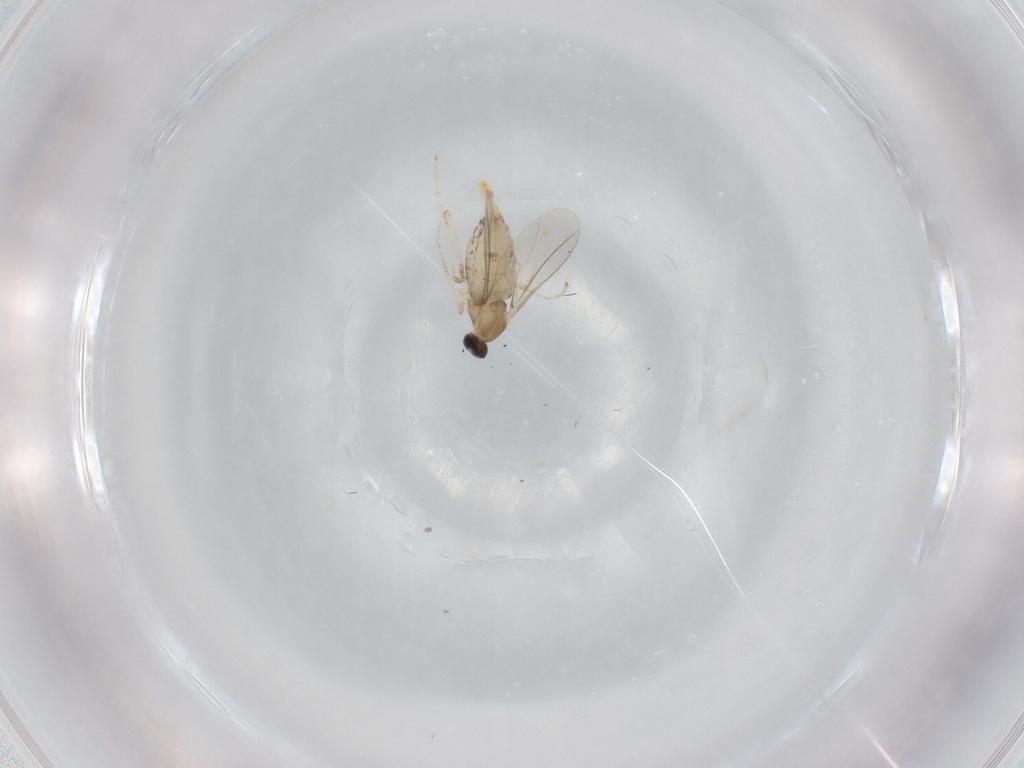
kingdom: Animalia
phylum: Arthropoda
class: Insecta
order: Diptera
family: Cecidomyiidae
